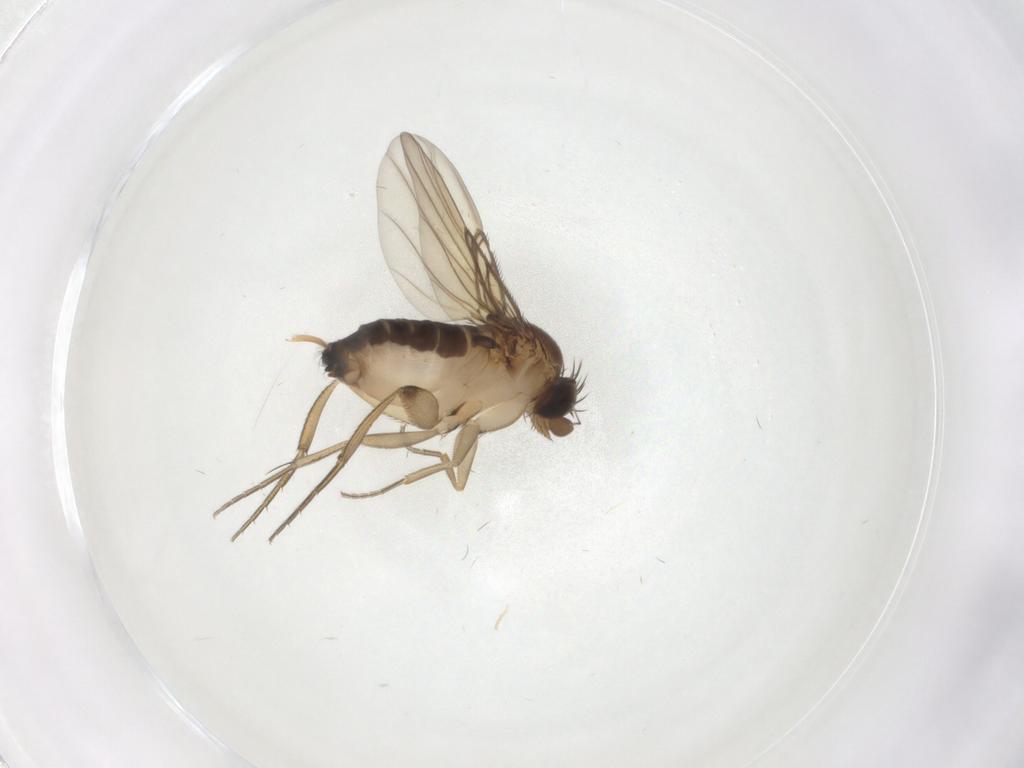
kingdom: Animalia
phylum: Arthropoda
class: Insecta
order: Diptera
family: Phoridae
